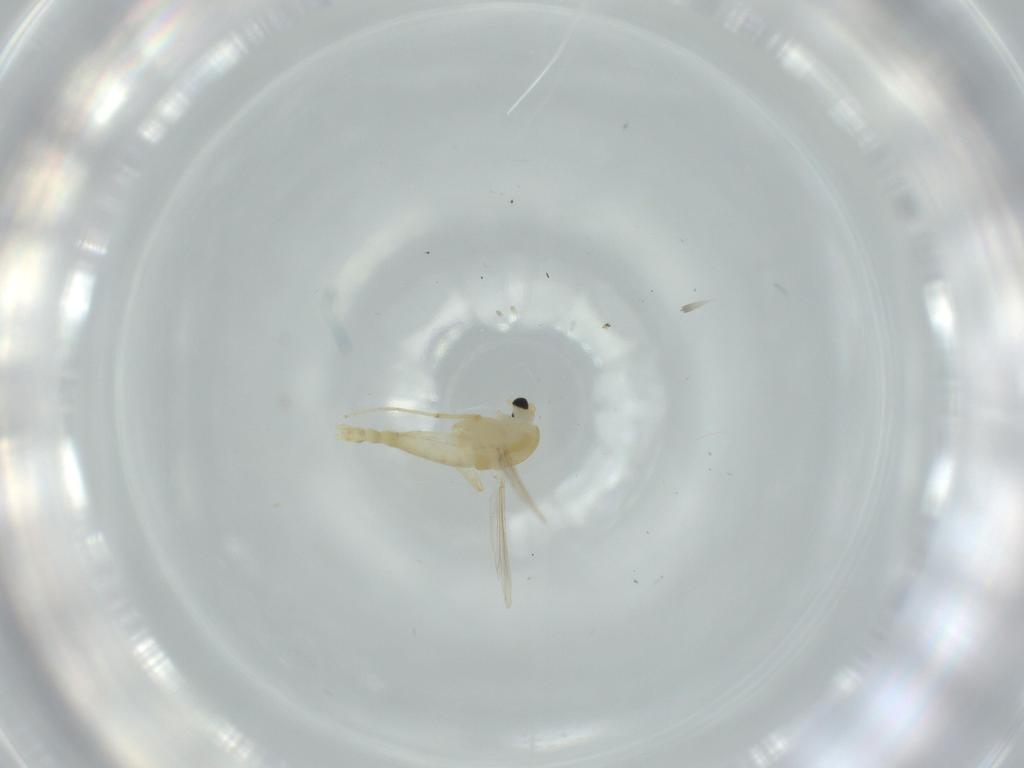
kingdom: Animalia
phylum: Arthropoda
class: Insecta
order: Diptera
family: Chironomidae
